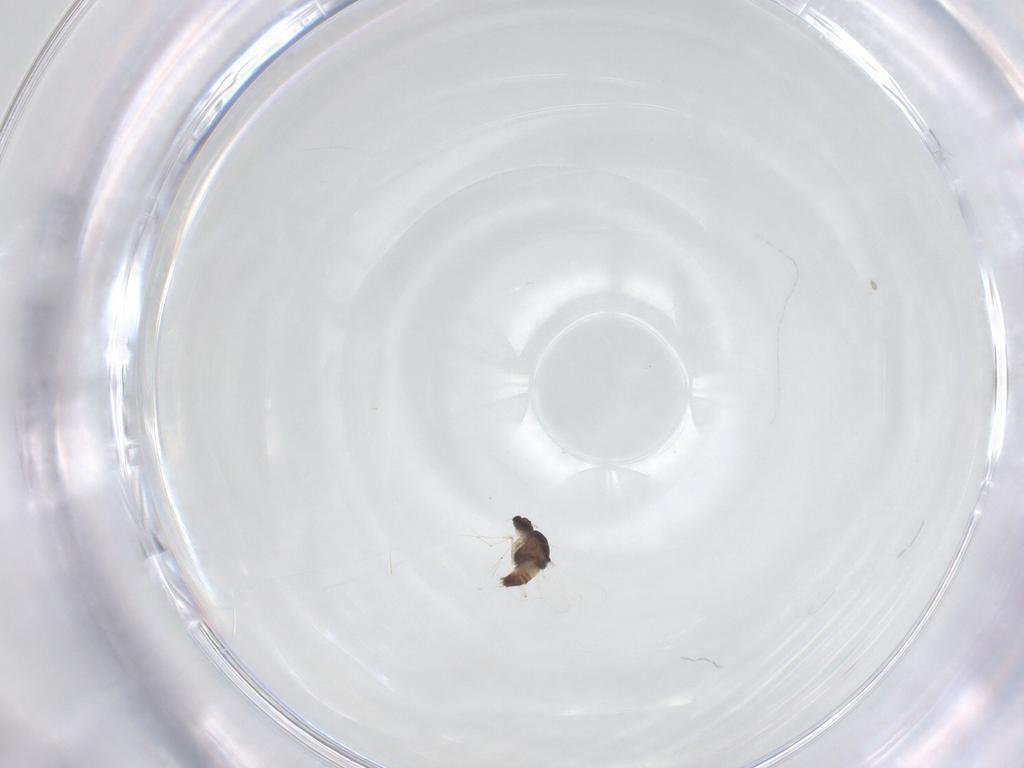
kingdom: Animalia
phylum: Arthropoda
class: Insecta
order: Diptera
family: Chironomidae
